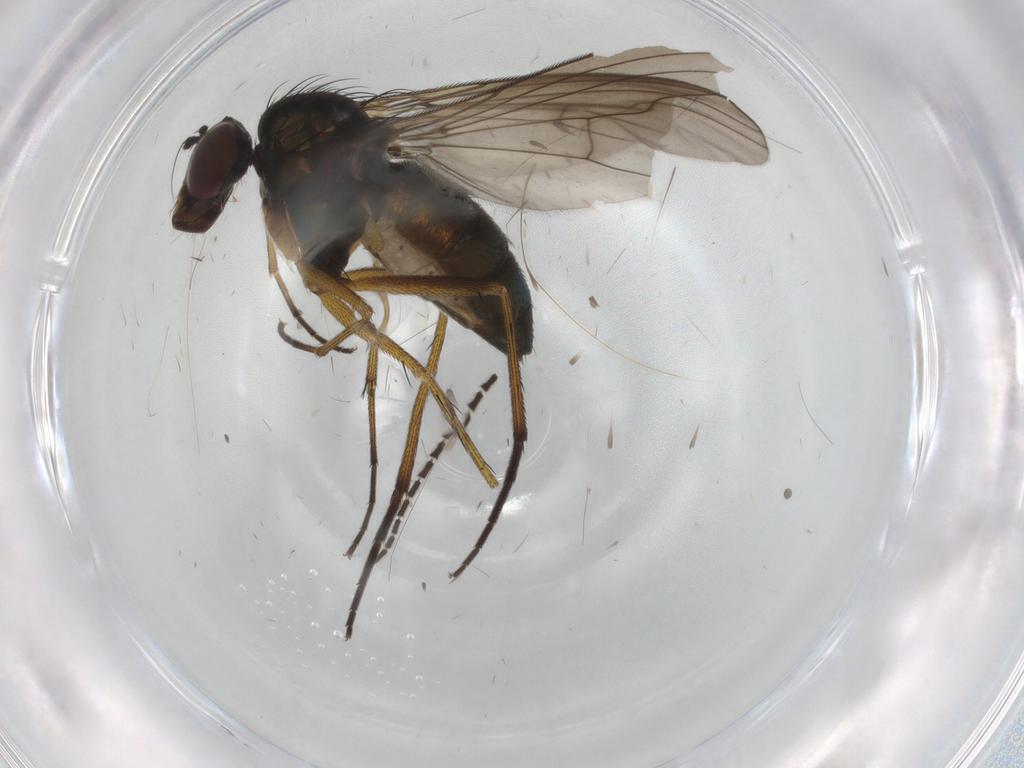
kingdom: Animalia
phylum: Arthropoda
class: Insecta
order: Diptera
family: Dolichopodidae
